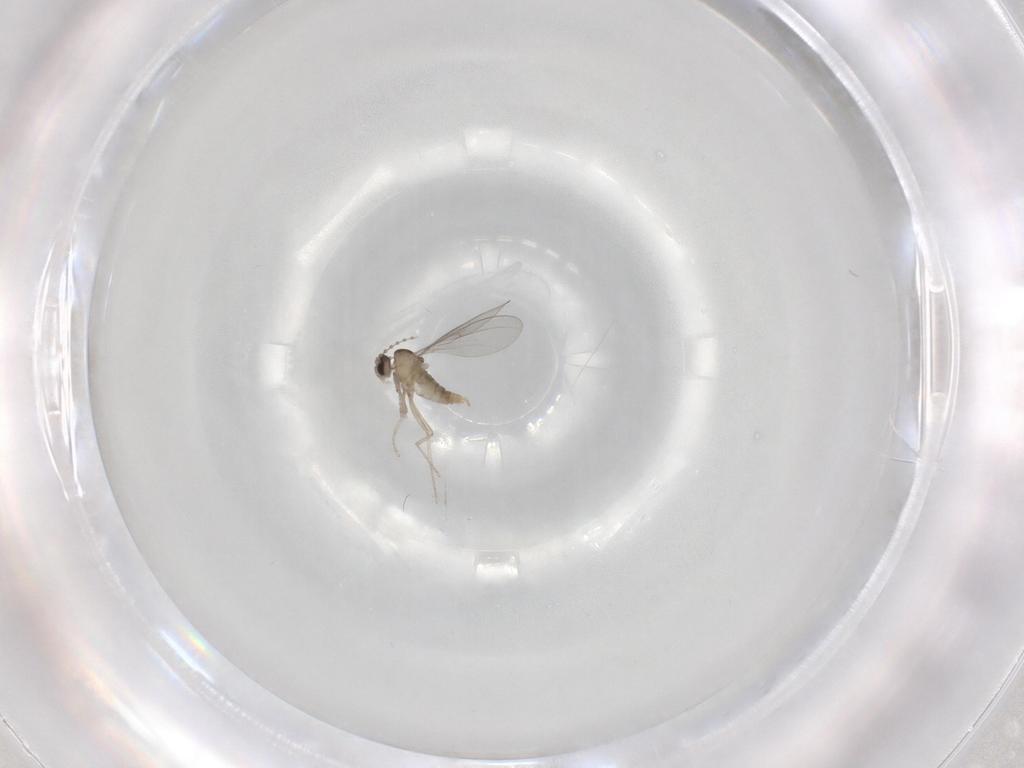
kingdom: Animalia
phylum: Arthropoda
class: Insecta
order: Diptera
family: Cecidomyiidae
